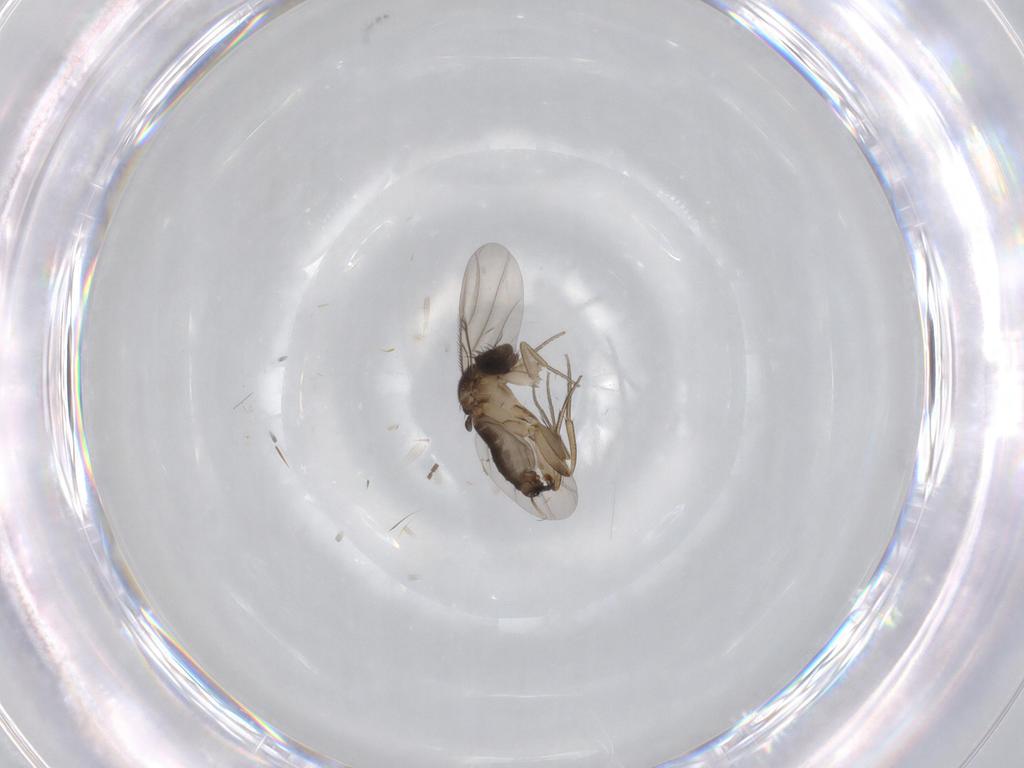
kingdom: Animalia
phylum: Arthropoda
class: Insecta
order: Diptera
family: Phoridae
